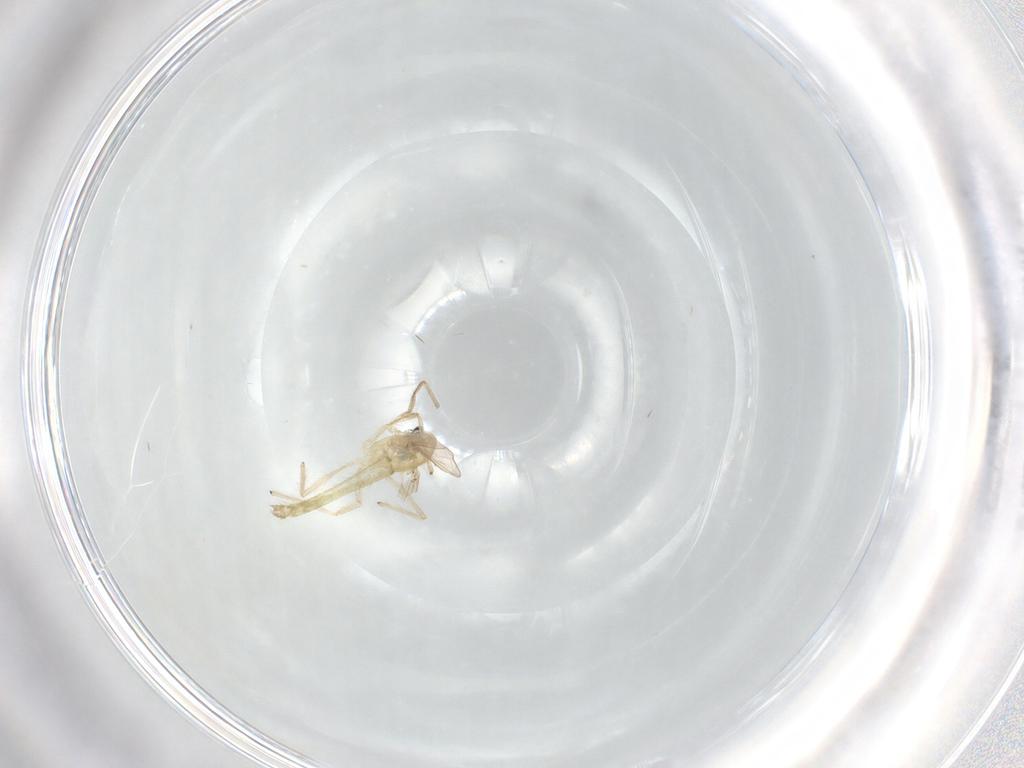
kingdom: Animalia
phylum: Arthropoda
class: Insecta
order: Diptera
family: Chironomidae
